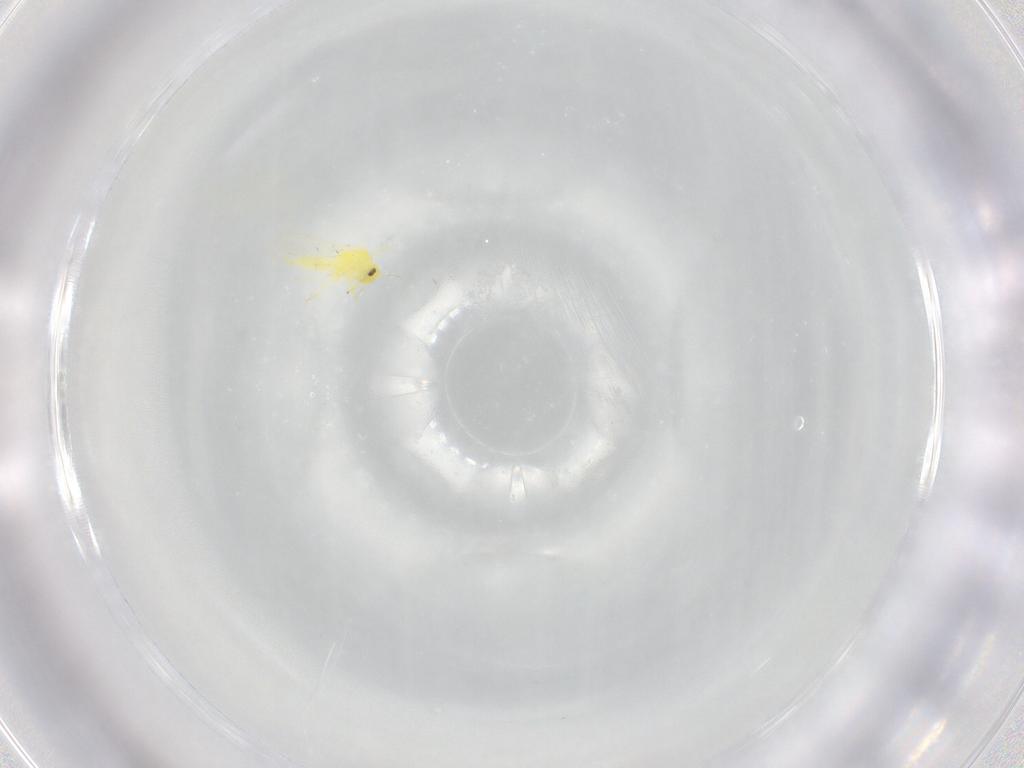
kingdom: Animalia
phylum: Arthropoda
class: Insecta
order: Hemiptera
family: Aleyrodidae
